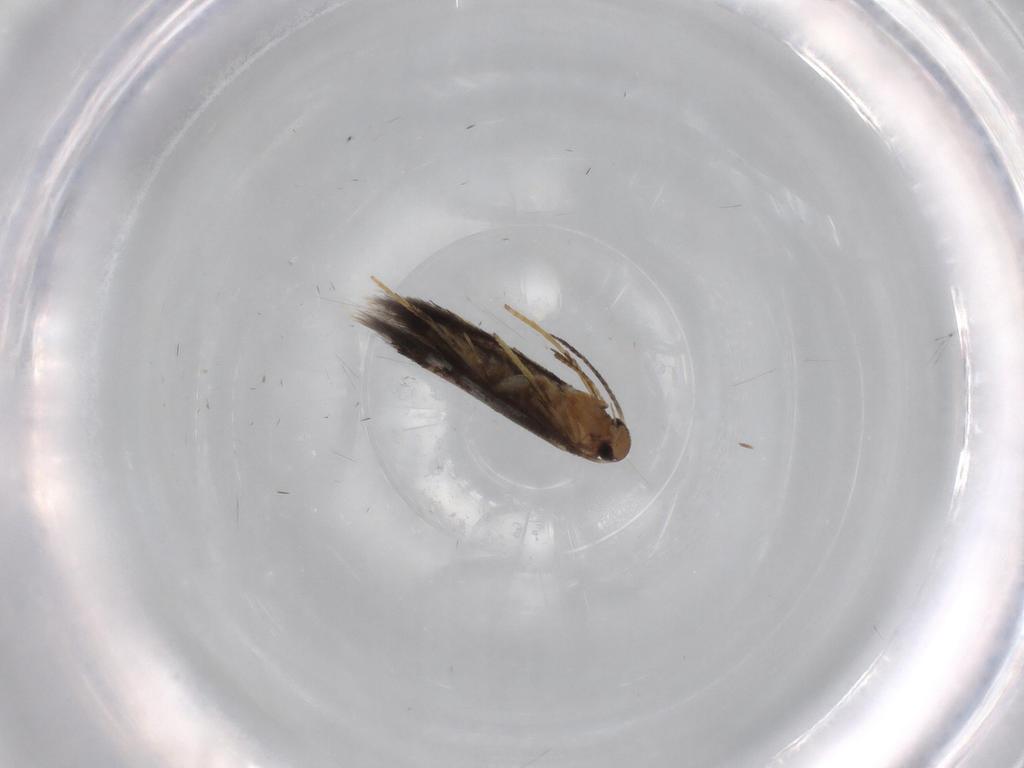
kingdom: Animalia
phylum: Arthropoda
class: Insecta
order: Lepidoptera
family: Heliozelidae
